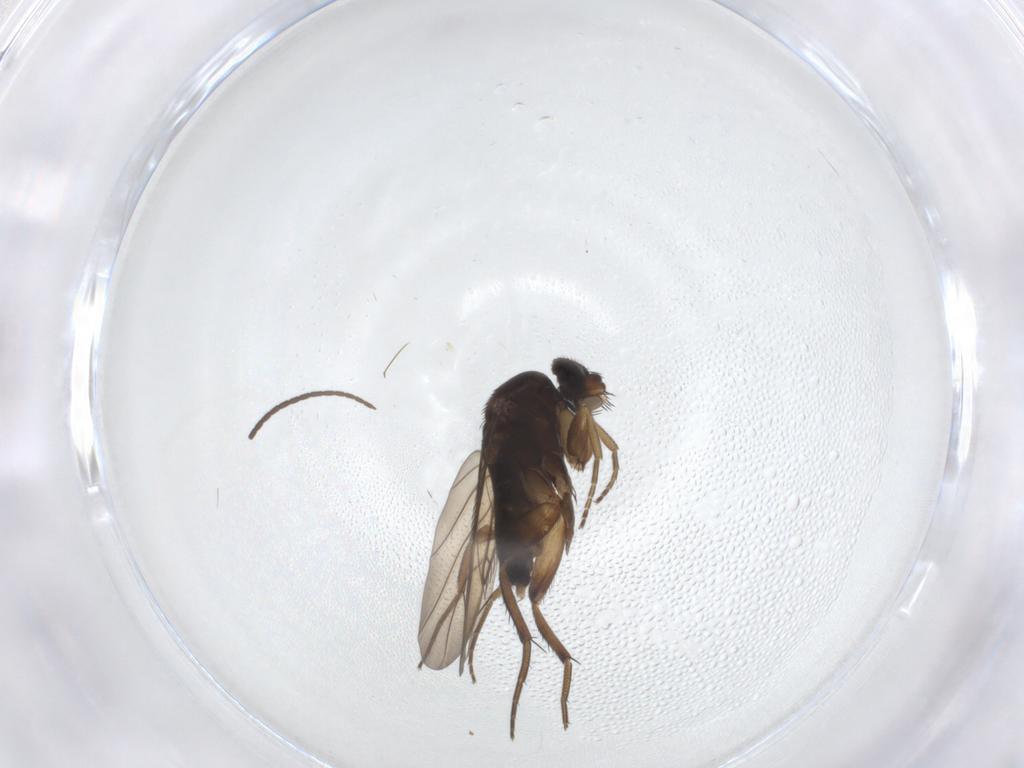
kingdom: Animalia
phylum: Arthropoda
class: Insecta
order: Diptera
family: Phoridae
